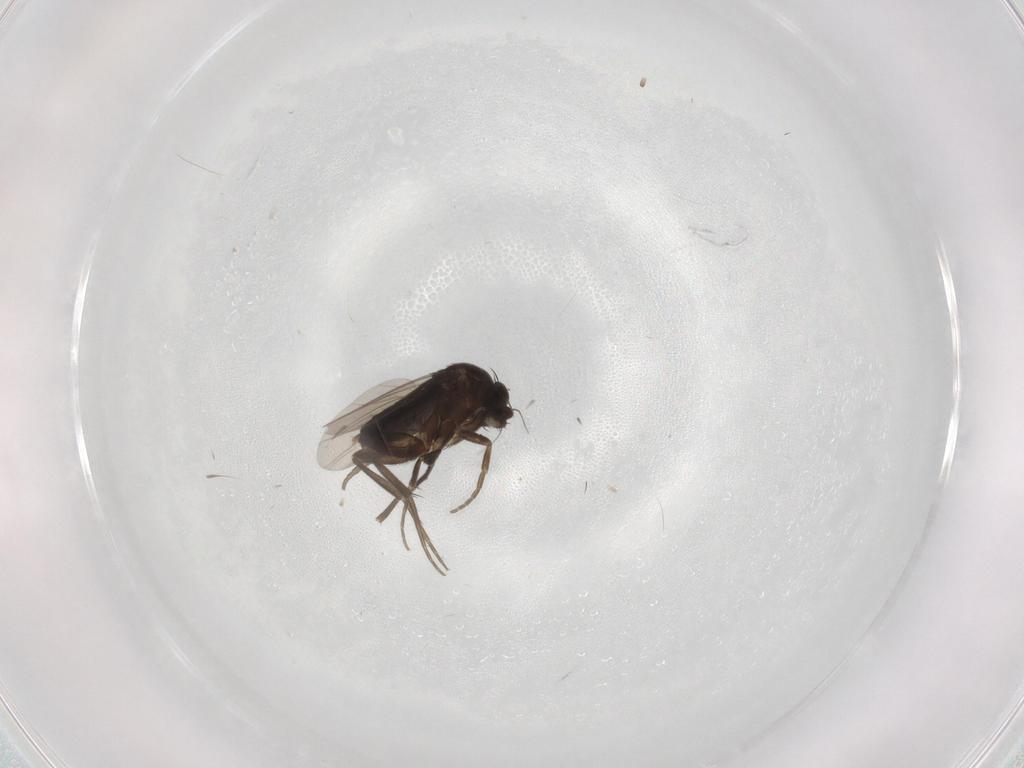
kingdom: Animalia
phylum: Arthropoda
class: Insecta
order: Diptera
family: Phoridae
